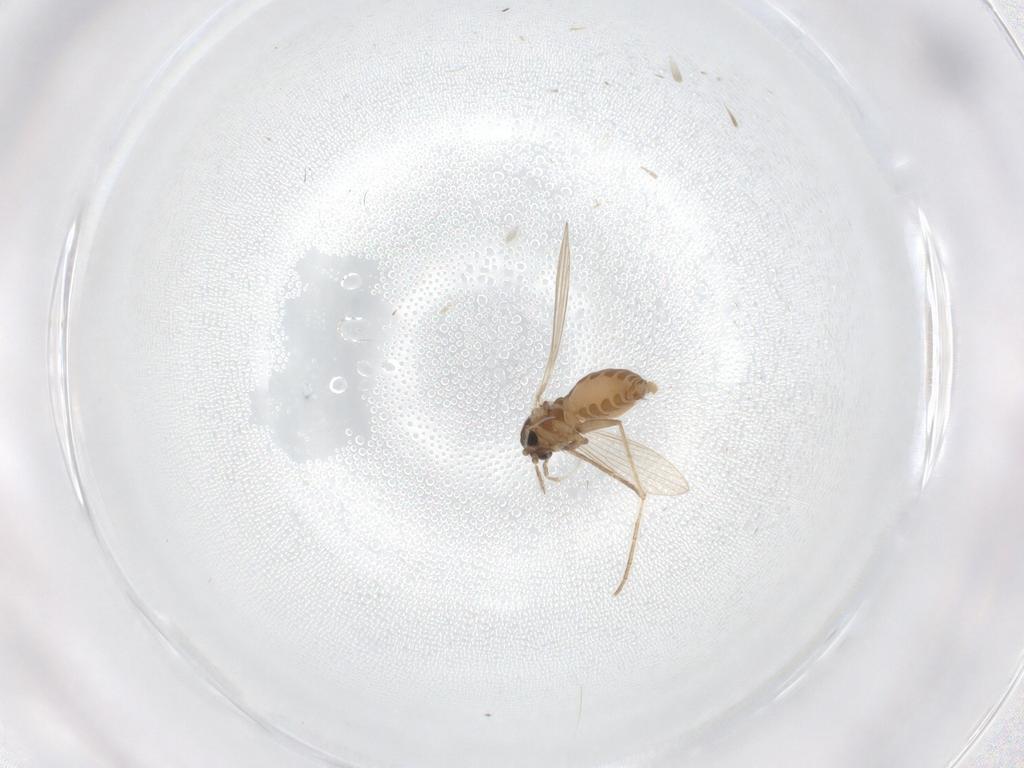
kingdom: Animalia
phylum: Arthropoda
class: Insecta
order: Diptera
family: Psychodidae
